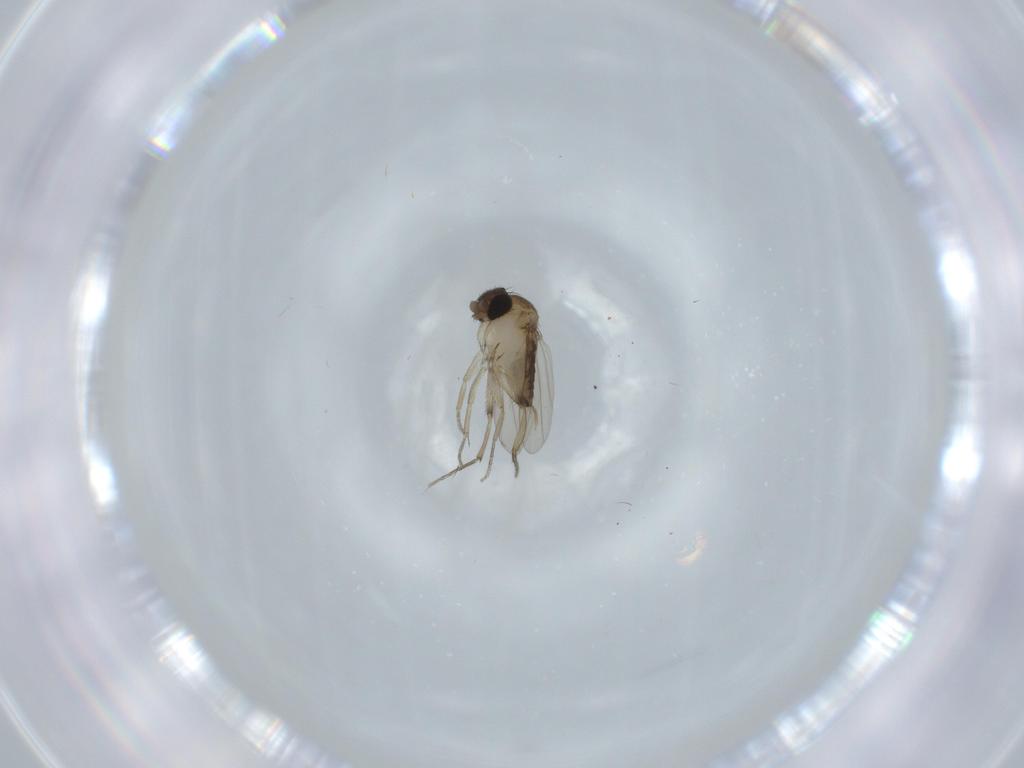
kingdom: Animalia
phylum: Arthropoda
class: Insecta
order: Diptera
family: Phoridae
